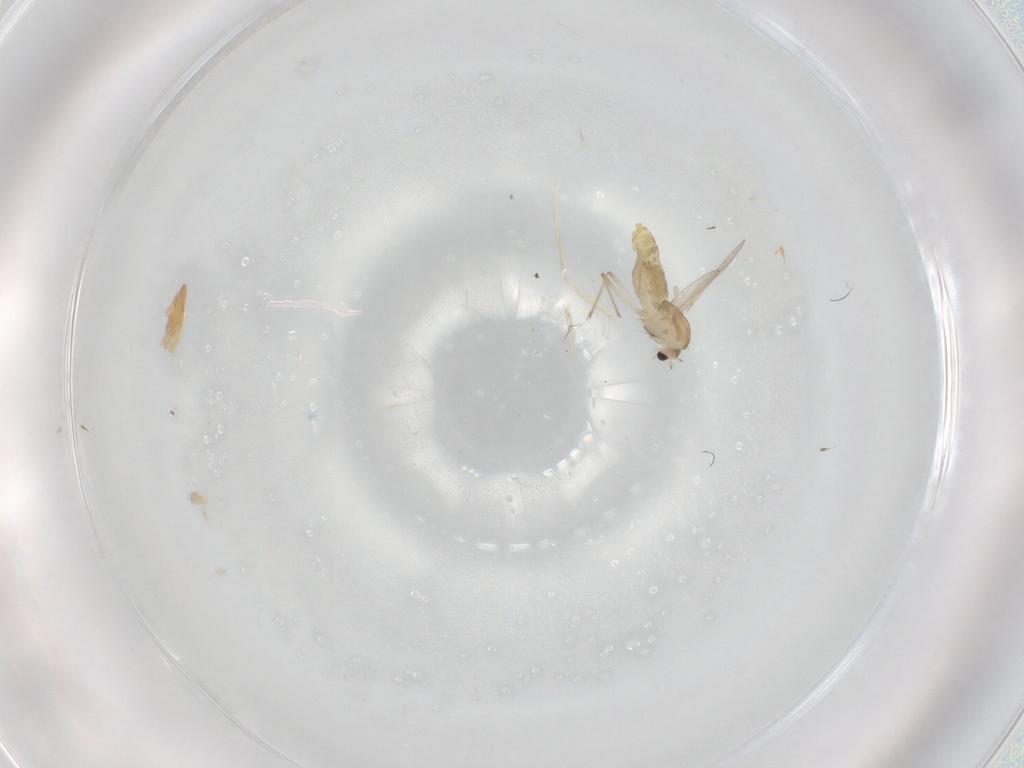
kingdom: Animalia
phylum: Arthropoda
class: Insecta
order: Diptera
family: Chironomidae
